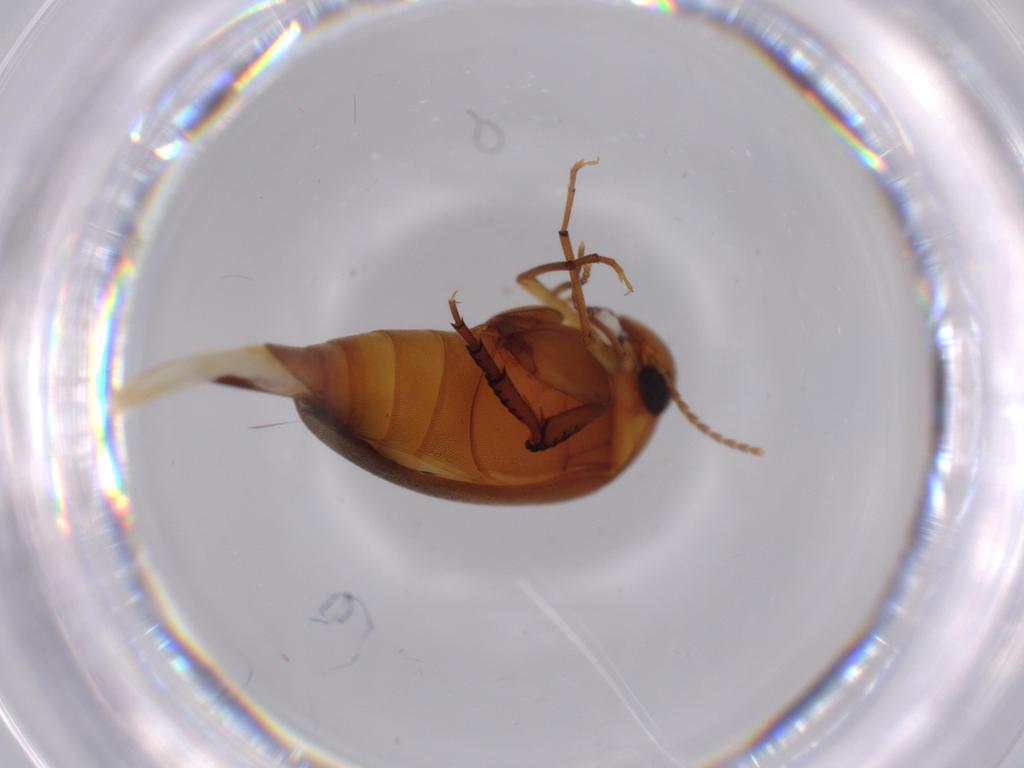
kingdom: Animalia
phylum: Arthropoda
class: Insecta
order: Coleoptera
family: Mordellidae
